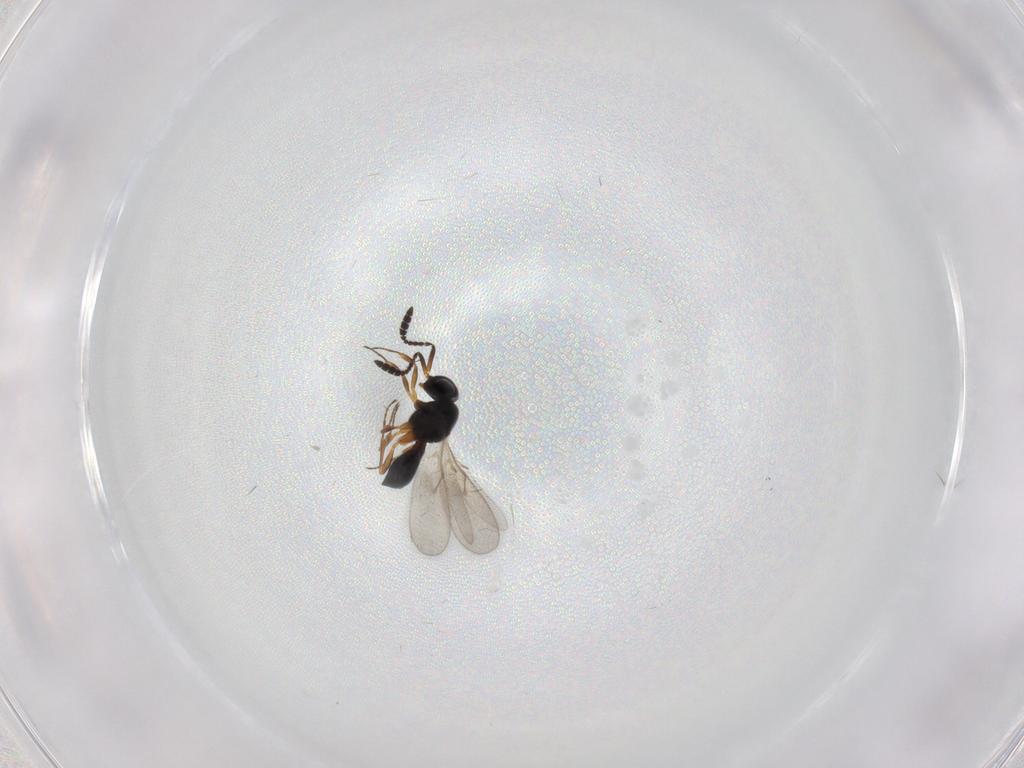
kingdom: Animalia
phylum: Arthropoda
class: Insecta
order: Hymenoptera
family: Scelionidae
